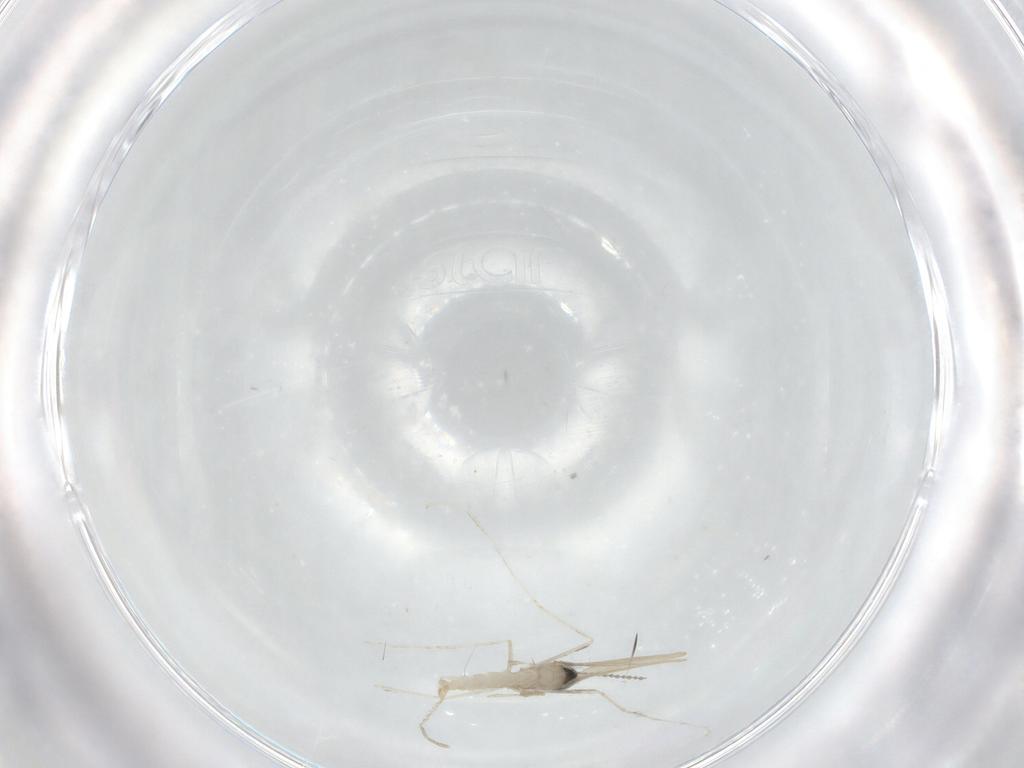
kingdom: Animalia
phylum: Arthropoda
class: Insecta
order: Diptera
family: Cecidomyiidae
